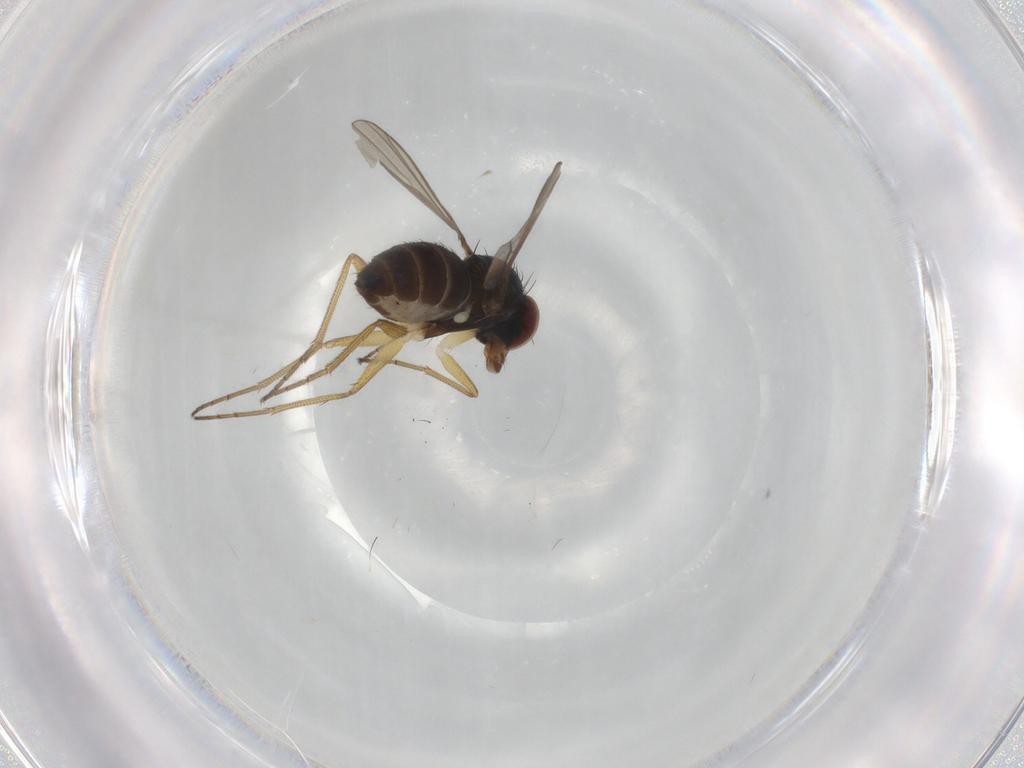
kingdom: Animalia
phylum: Arthropoda
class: Insecta
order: Diptera
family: Dolichopodidae
